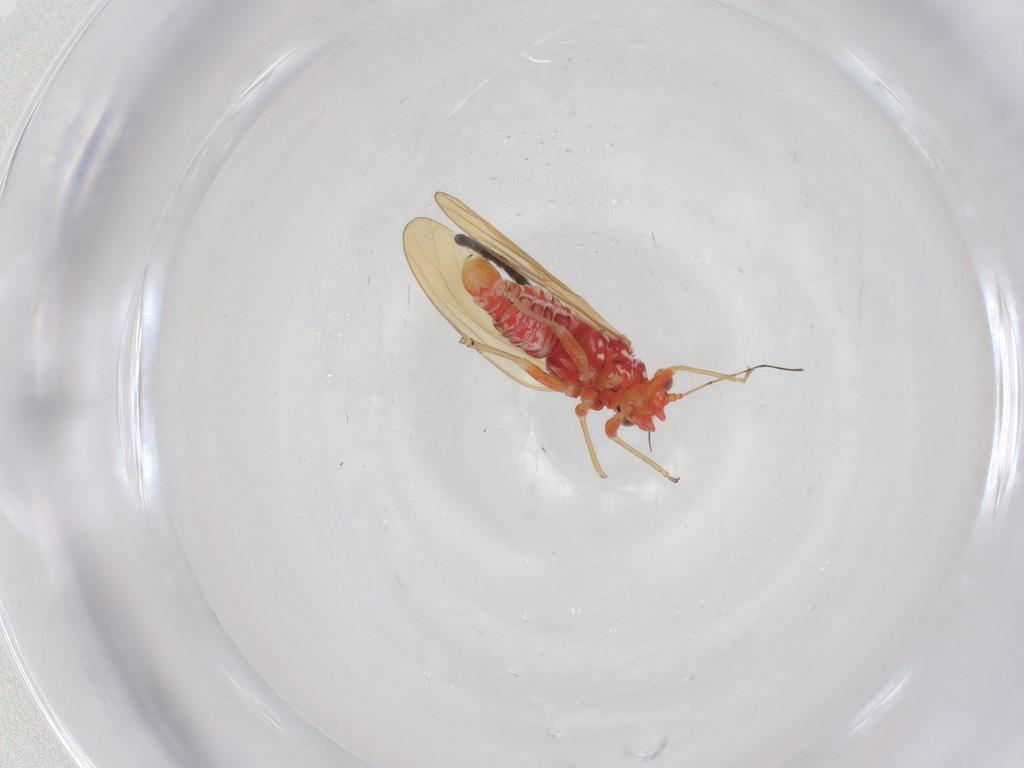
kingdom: Animalia
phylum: Arthropoda
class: Insecta
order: Hemiptera
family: Psyllidae
